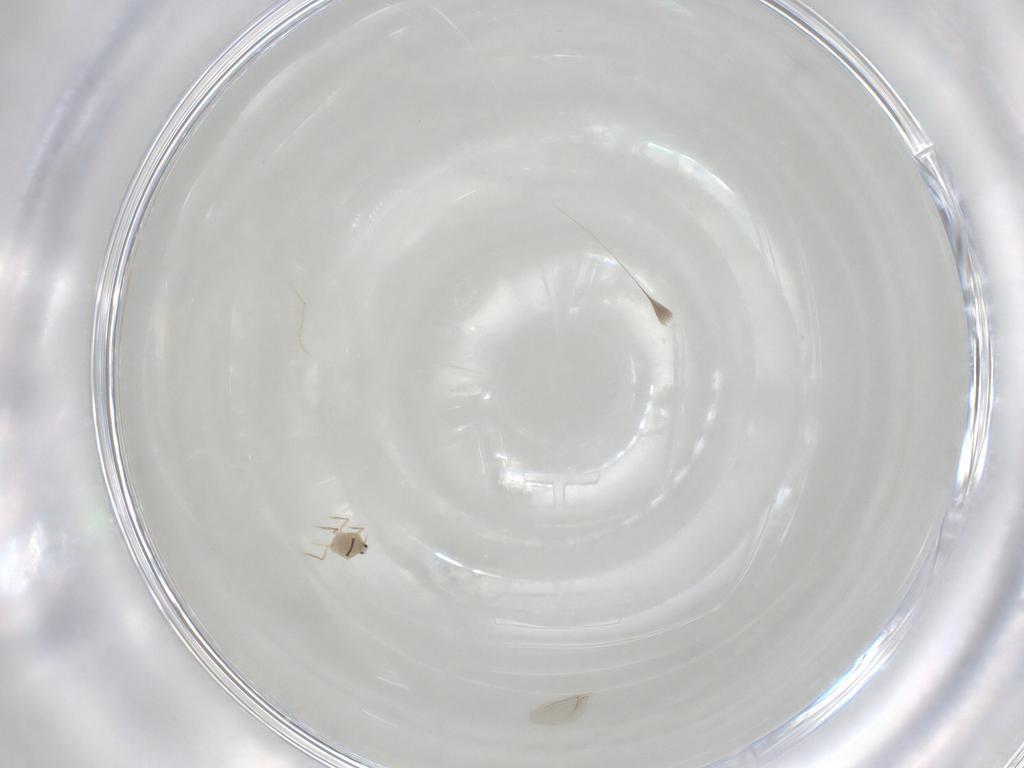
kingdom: Animalia
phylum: Arthropoda
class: Insecta
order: Diptera
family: Psychodidae
